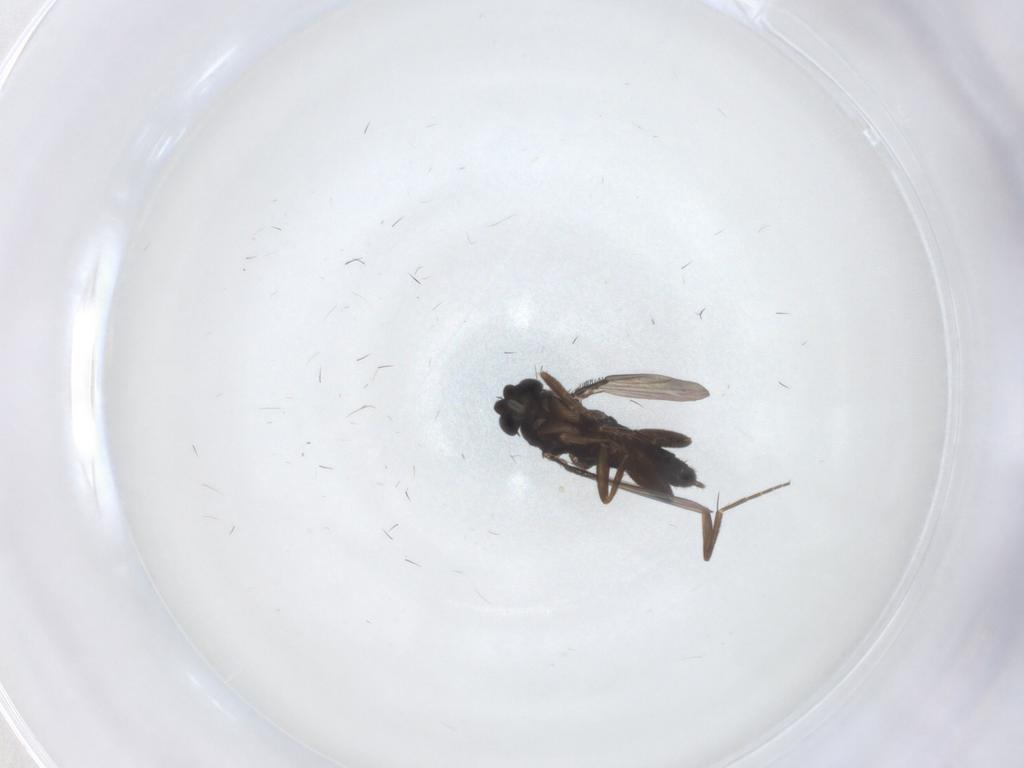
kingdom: Animalia
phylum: Arthropoda
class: Insecta
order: Diptera
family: Phoridae
